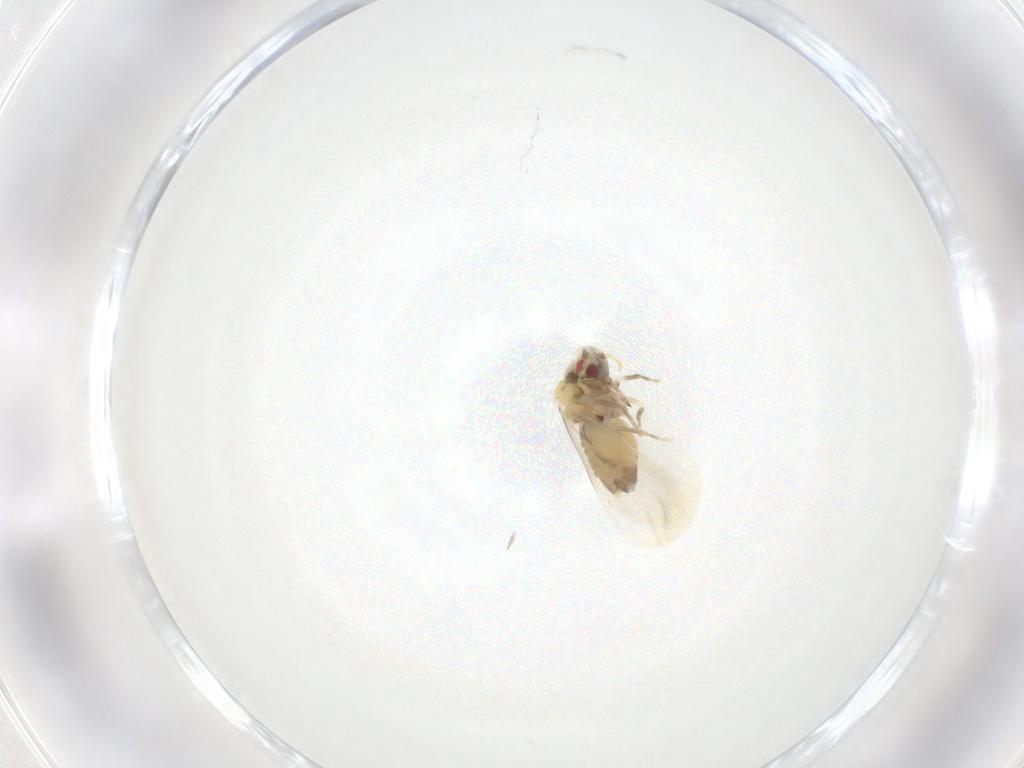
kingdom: Animalia
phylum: Arthropoda
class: Insecta
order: Hemiptera
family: Aleyrodidae
